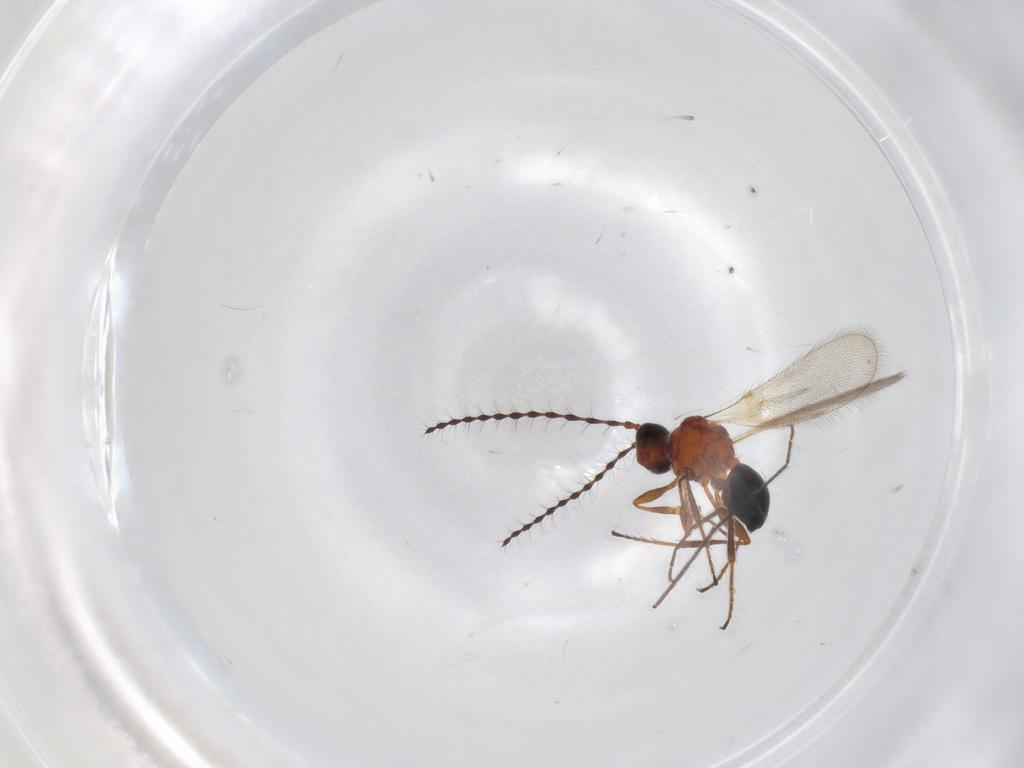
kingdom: Animalia
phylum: Arthropoda
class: Insecta
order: Hymenoptera
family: Diapriidae
